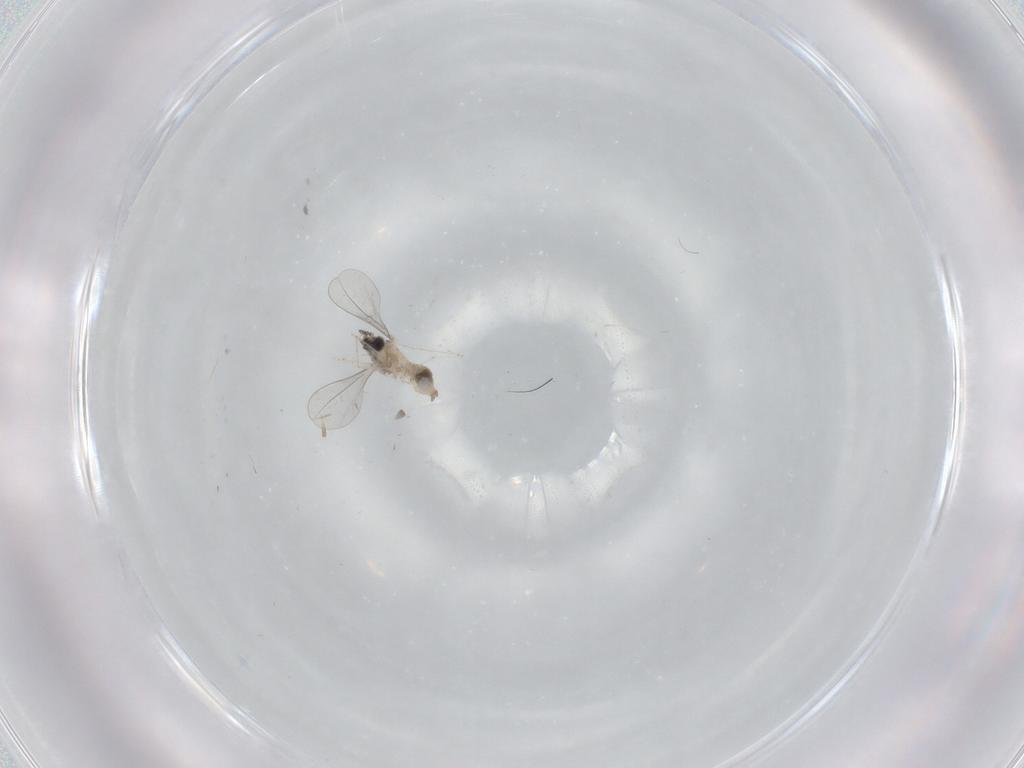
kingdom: Animalia
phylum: Arthropoda
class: Insecta
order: Diptera
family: Cecidomyiidae
